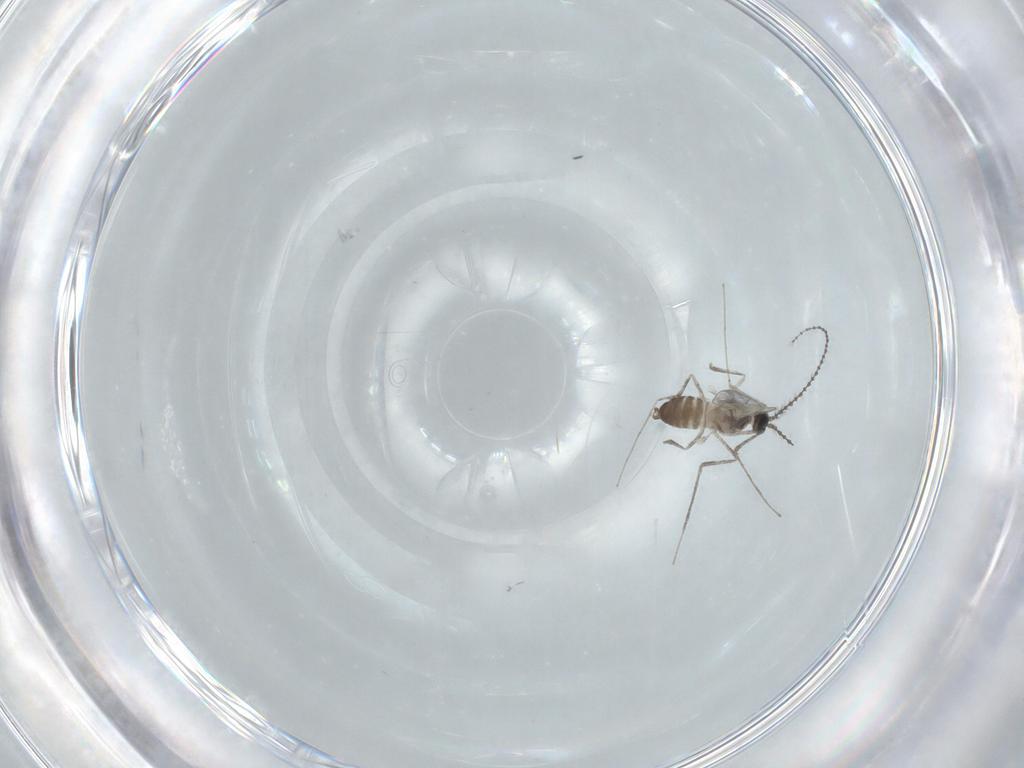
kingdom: Animalia
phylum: Arthropoda
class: Insecta
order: Diptera
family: Cecidomyiidae
